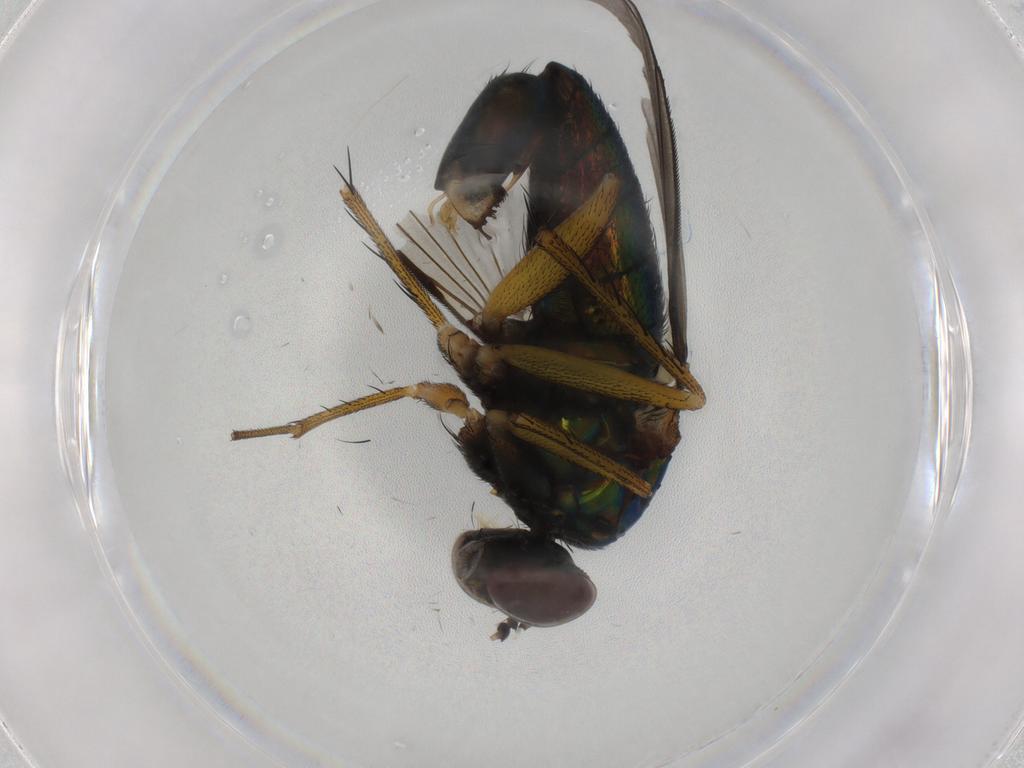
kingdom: Animalia
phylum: Arthropoda
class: Insecta
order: Diptera
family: Dolichopodidae
